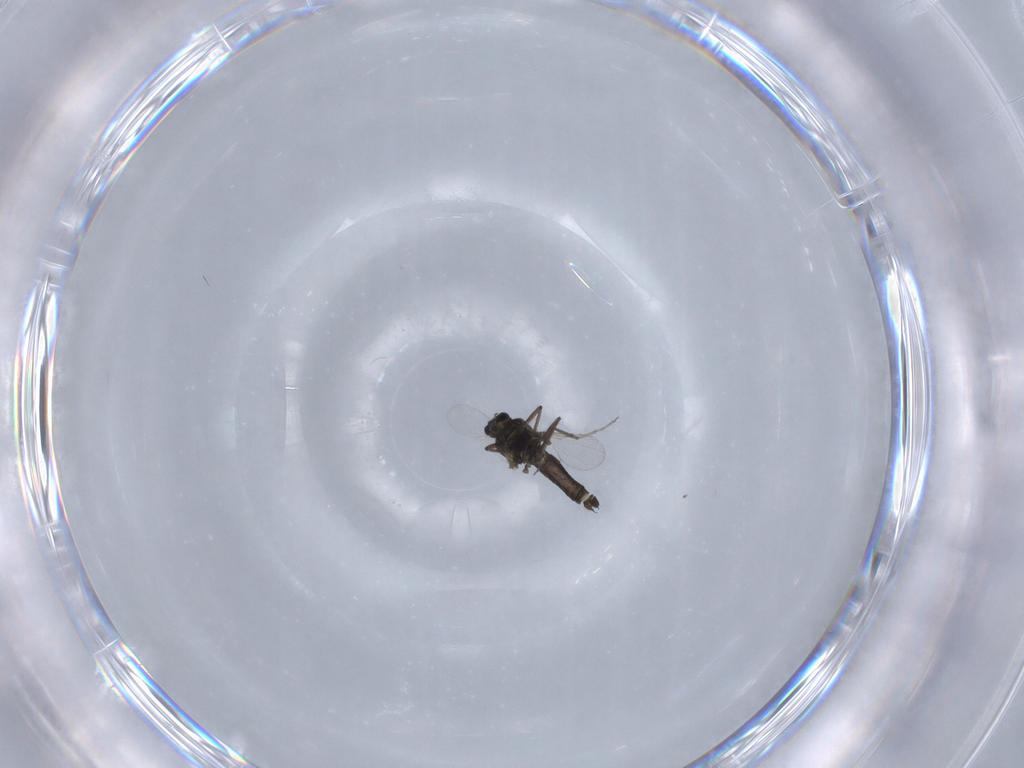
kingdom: Animalia
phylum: Arthropoda
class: Insecta
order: Diptera
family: Ceratopogonidae
